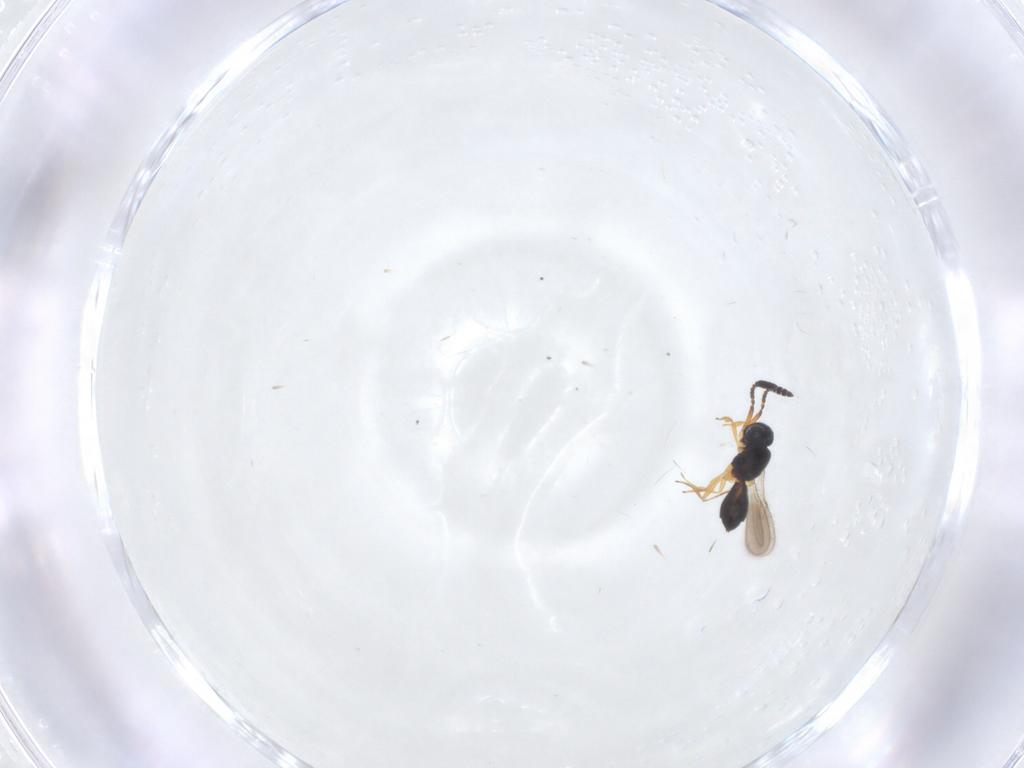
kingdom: Animalia
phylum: Arthropoda
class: Insecta
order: Hymenoptera
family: Scelionidae
